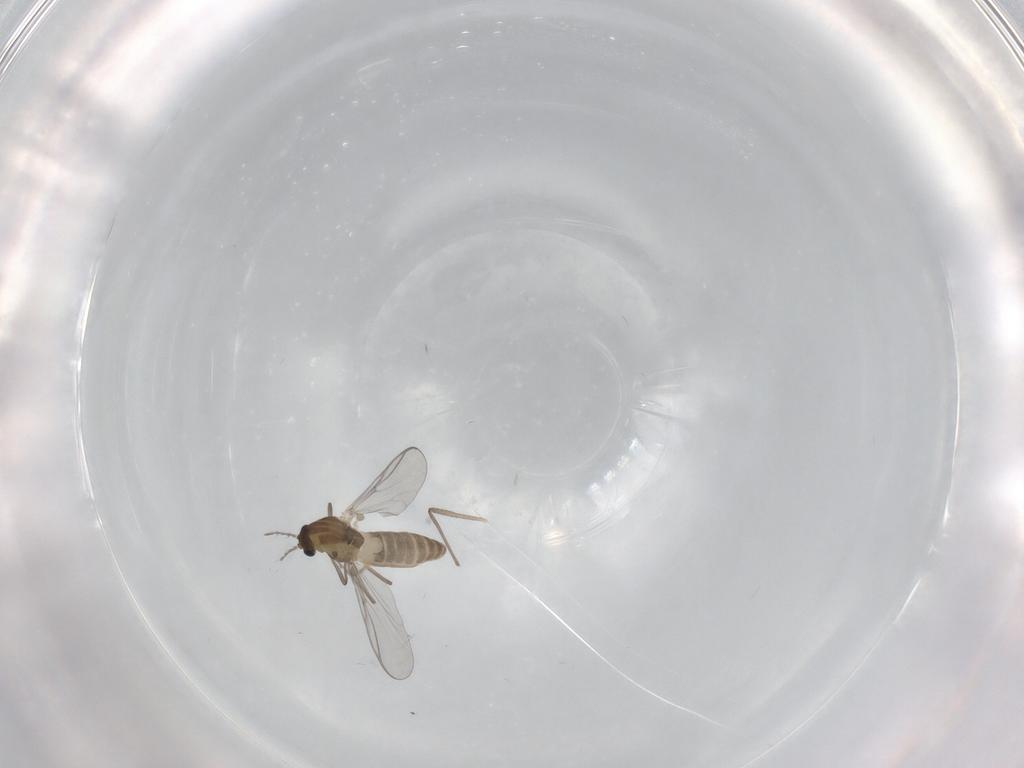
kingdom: Animalia
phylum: Arthropoda
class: Insecta
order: Diptera
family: Chironomidae
